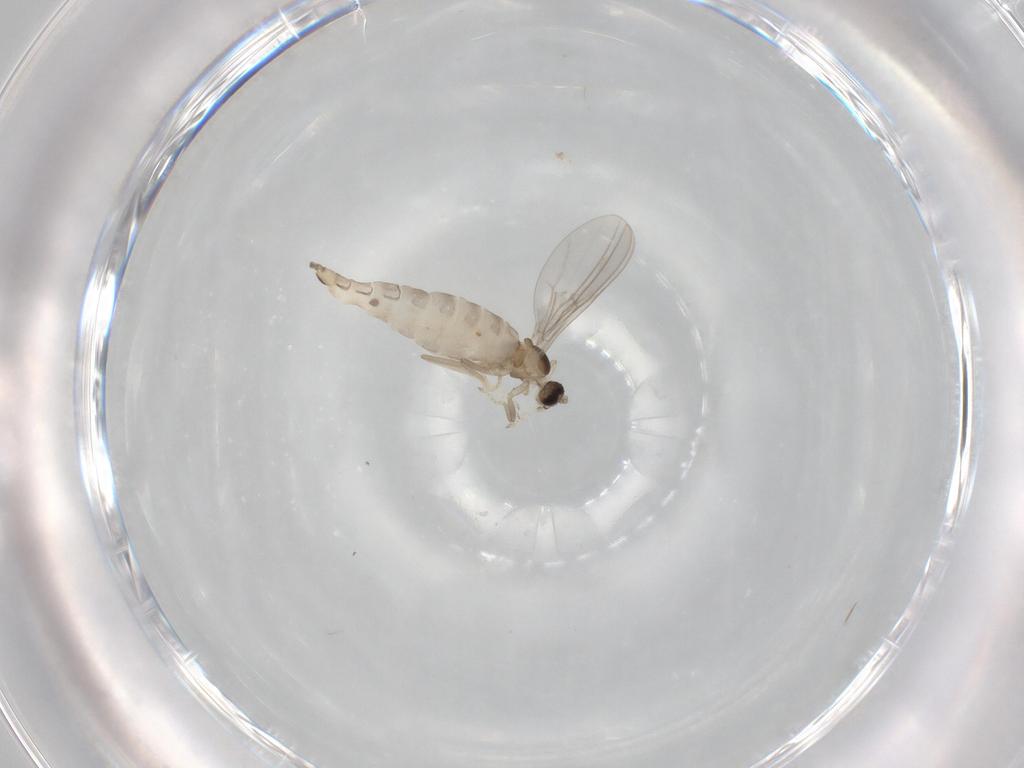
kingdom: Animalia
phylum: Arthropoda
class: Insecta
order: Diptera
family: Cecidomyiidae
